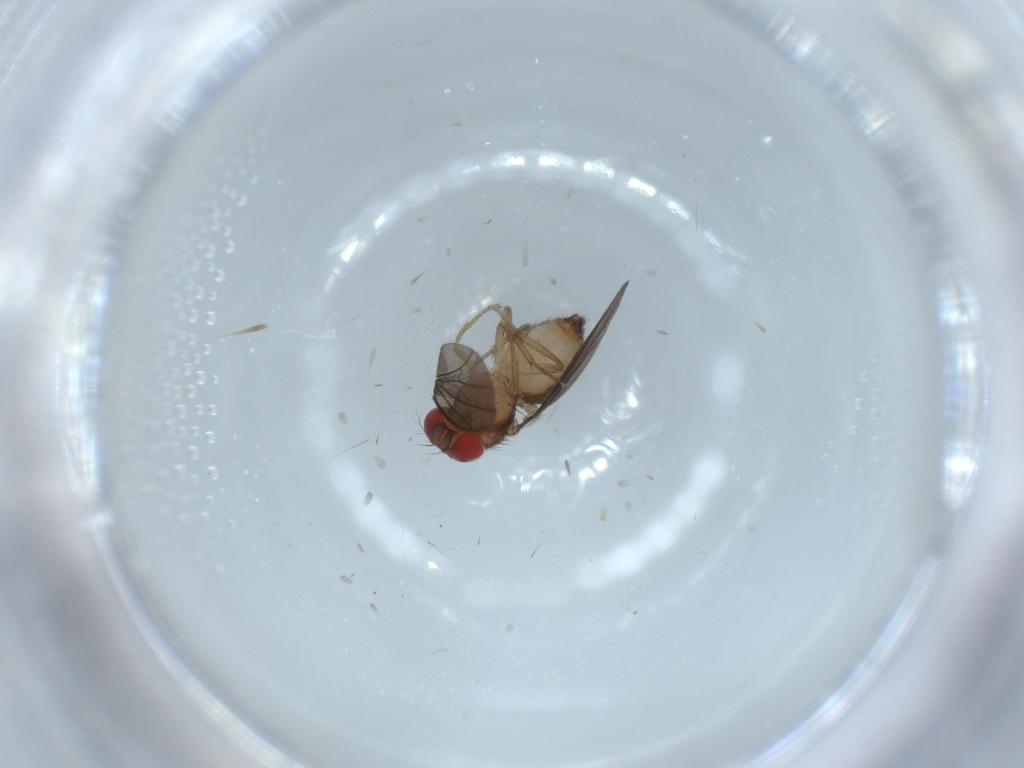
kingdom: Animalia
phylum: Arthropoda
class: Insecta
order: Diptera
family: Drosophilidae
